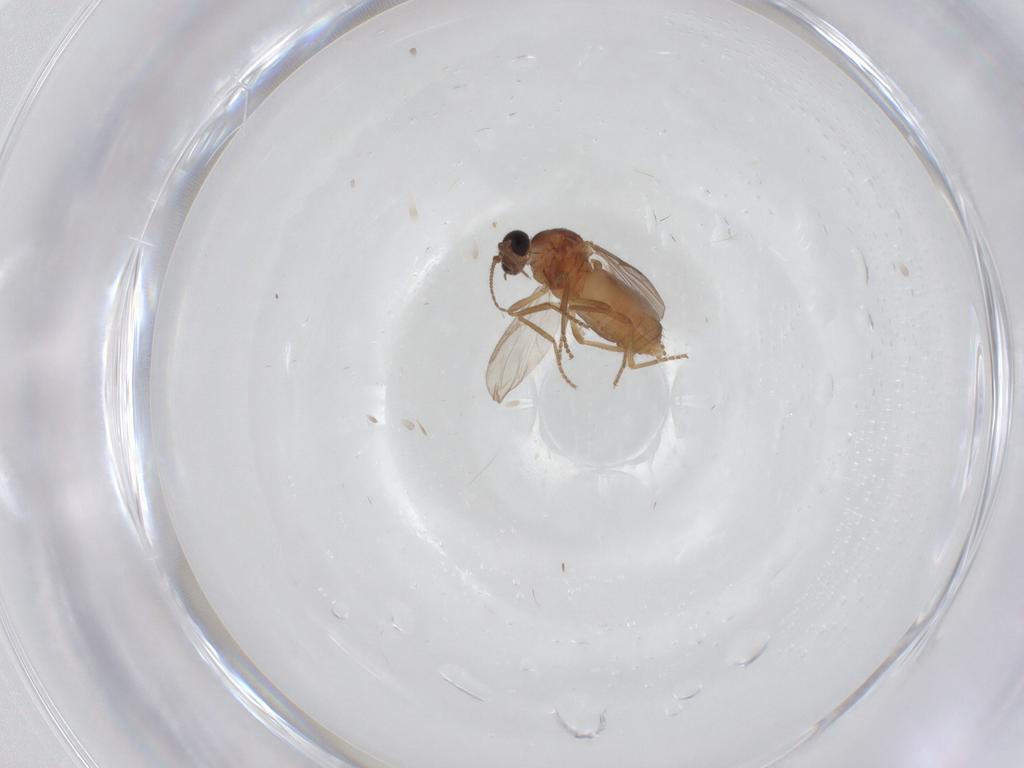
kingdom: Animalia
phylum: Arthropoda
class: Insecta
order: Diptera
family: Ceratopogonidae
